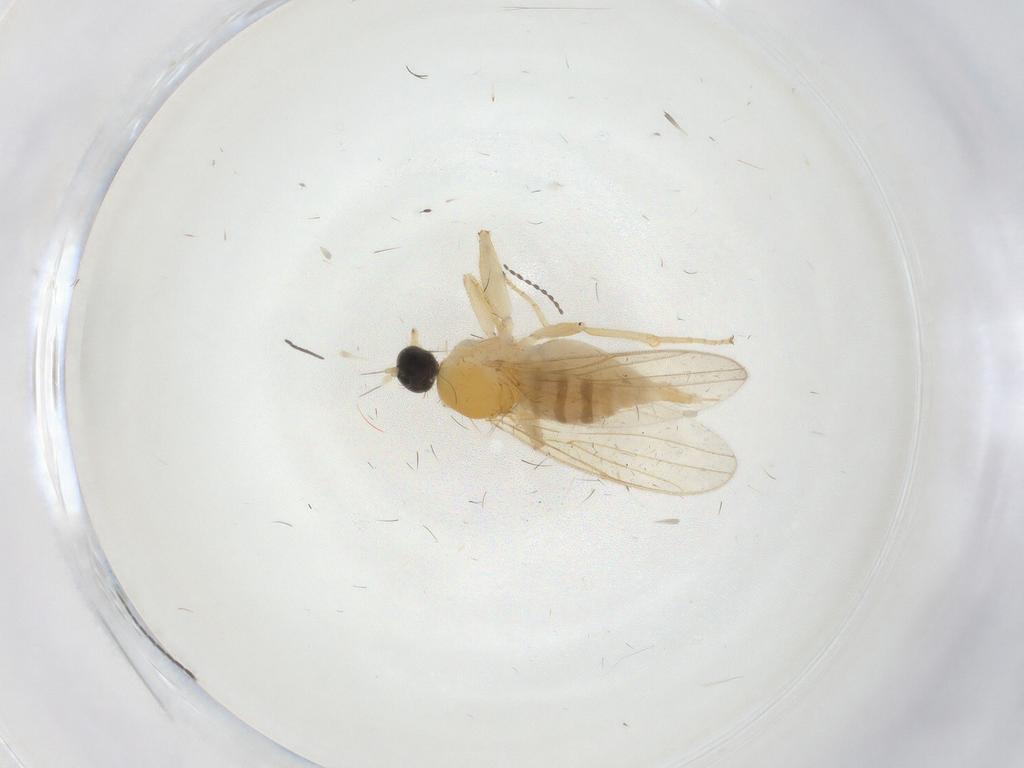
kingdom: Animalia
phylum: Arthropoda
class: Insecta
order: Diptera
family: Sciaridae
